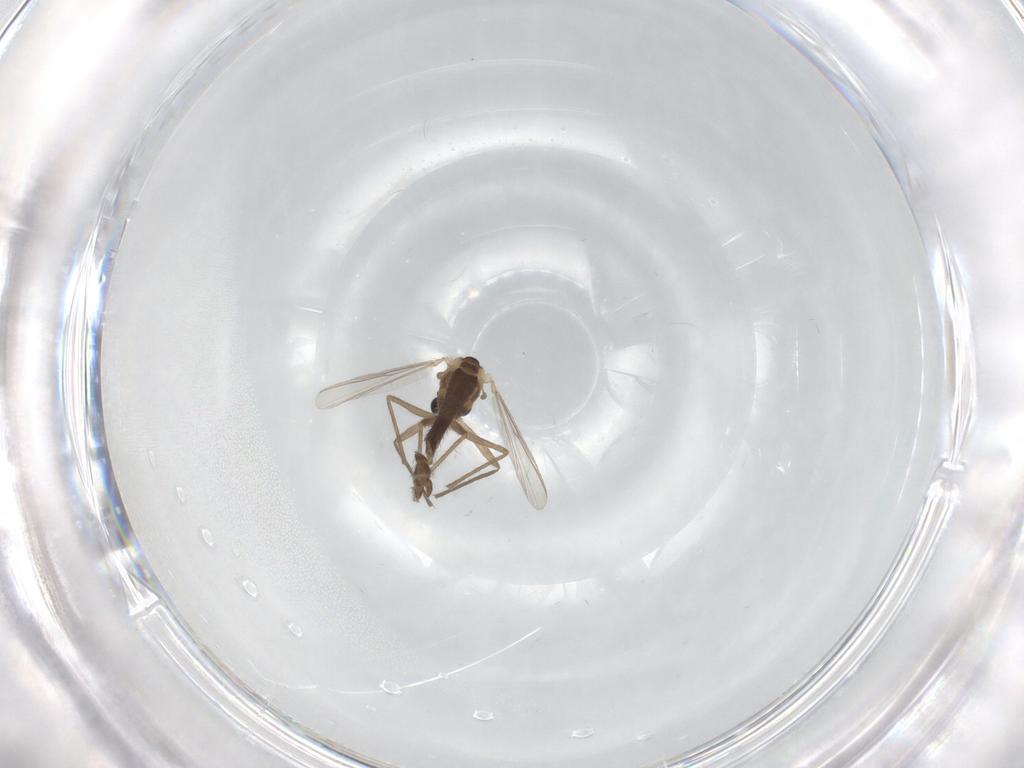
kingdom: Animalia
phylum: Arthropoda
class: Insecta
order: Diptera
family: Chironomidae
